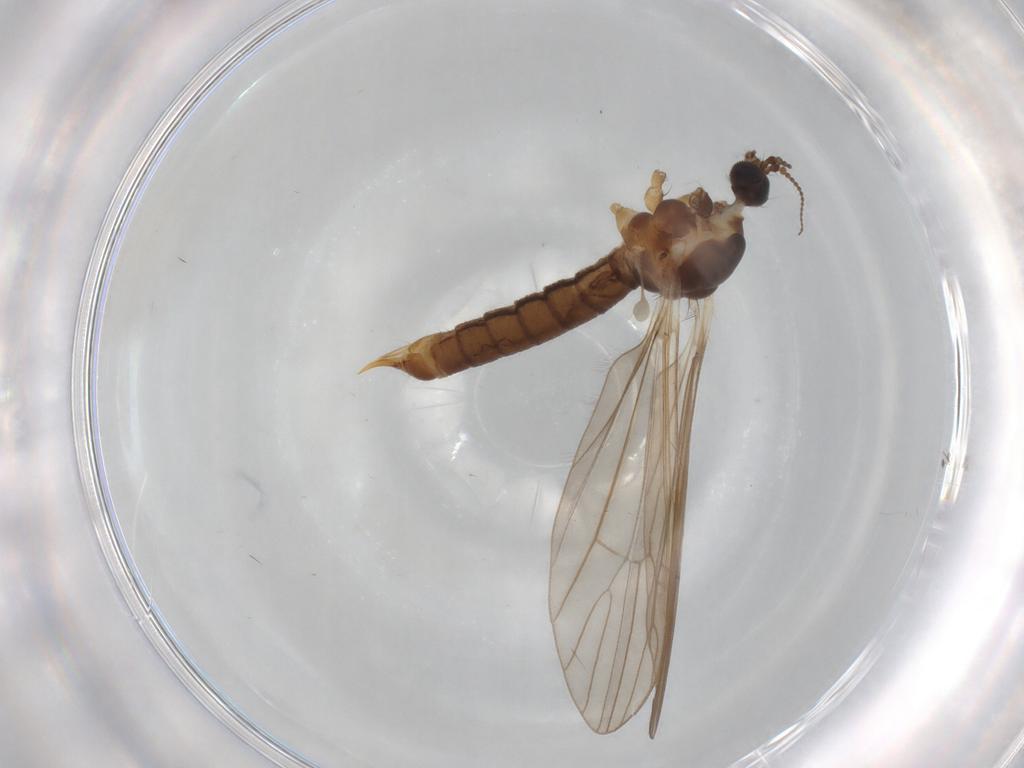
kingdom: Animalia
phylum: Arthropoda
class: Insecta
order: Diptera
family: Limoniidae
